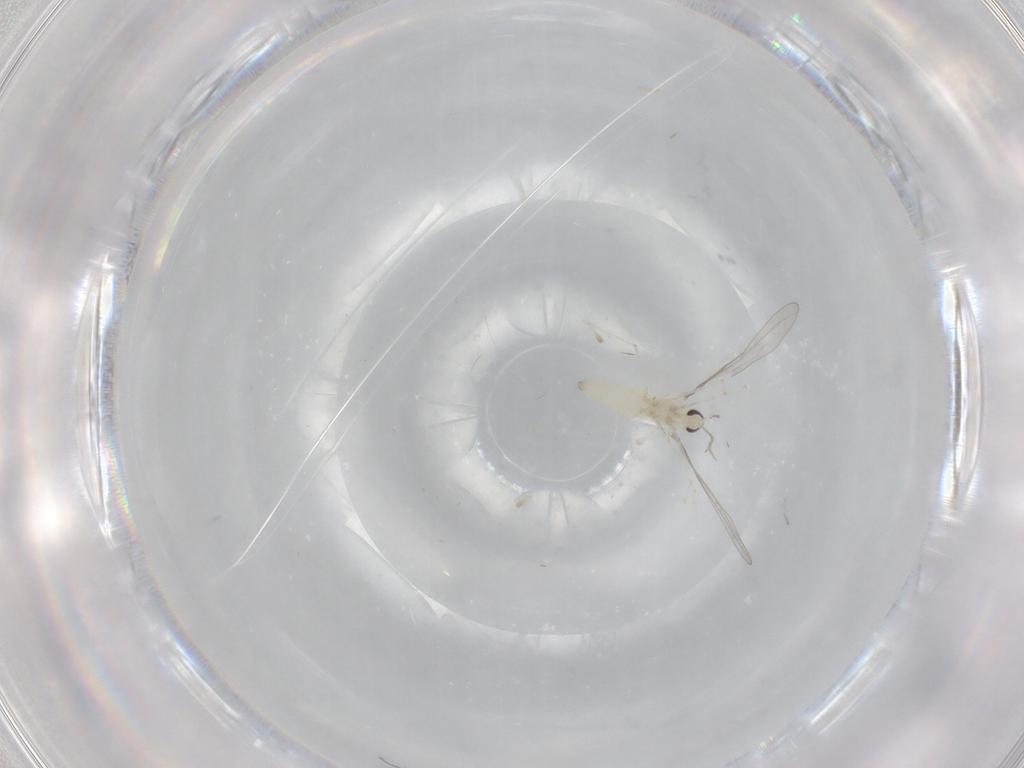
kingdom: Animalia
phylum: Arthropoda
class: Insecta
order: Diptera
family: Cecidomyiidae
